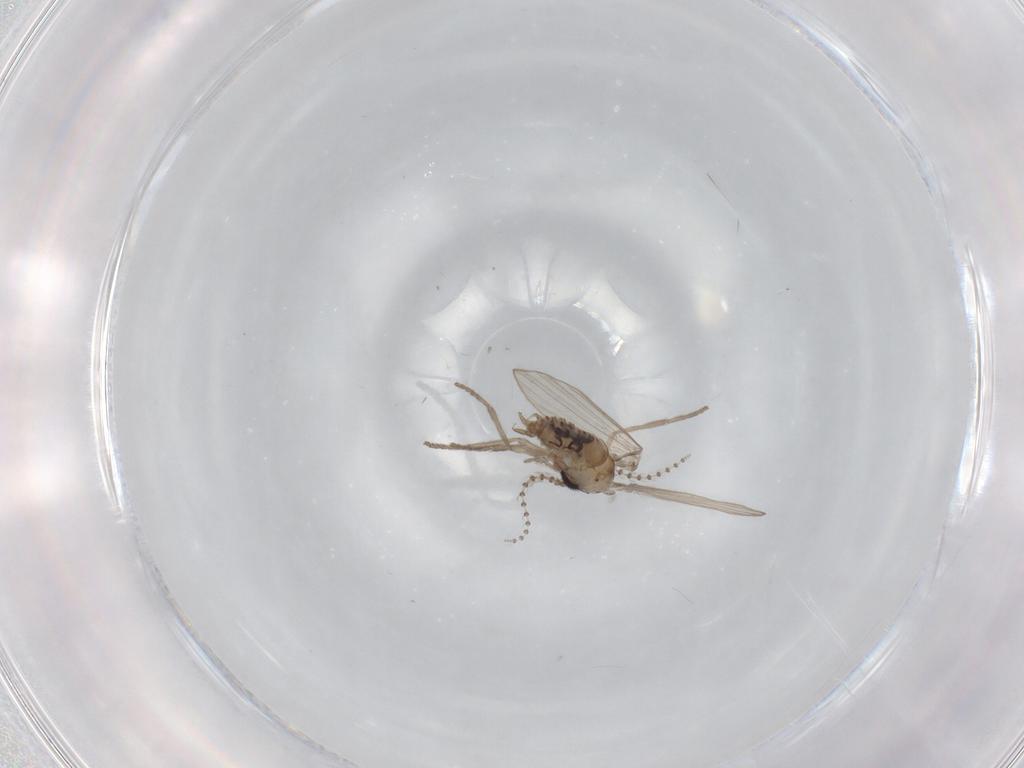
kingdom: Animalia
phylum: Arthropoda
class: Insecta
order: Diptera
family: Psychodidae
